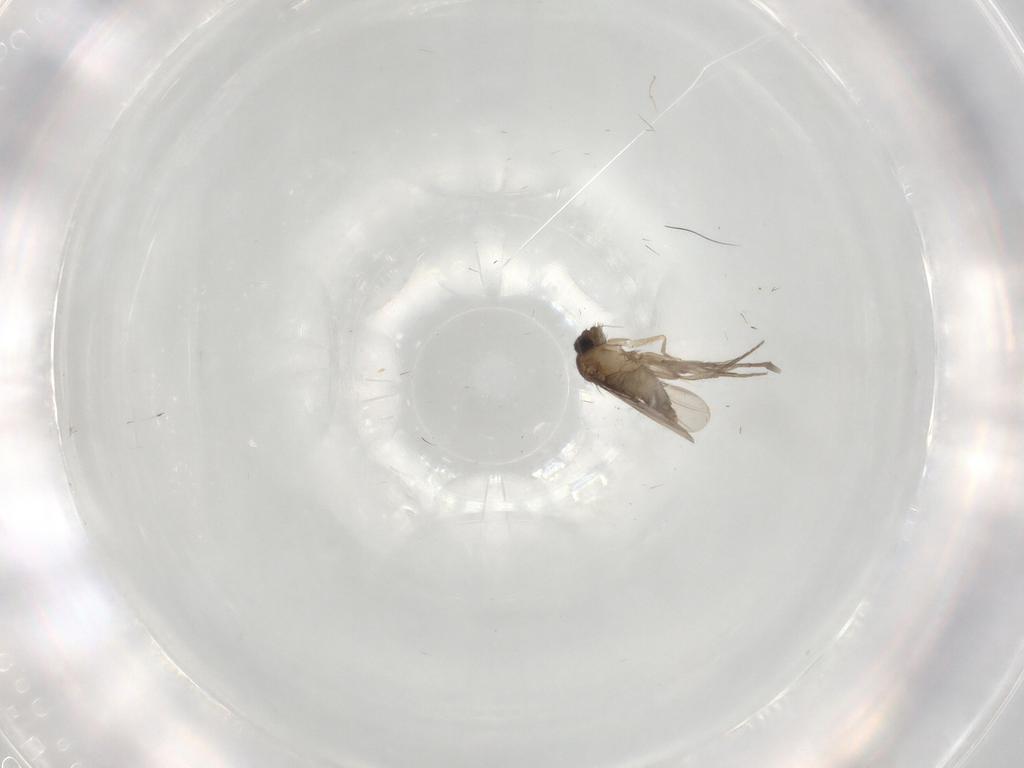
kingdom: Animalia
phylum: Arthropoda
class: Insecta
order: Diptera
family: Phoridae
